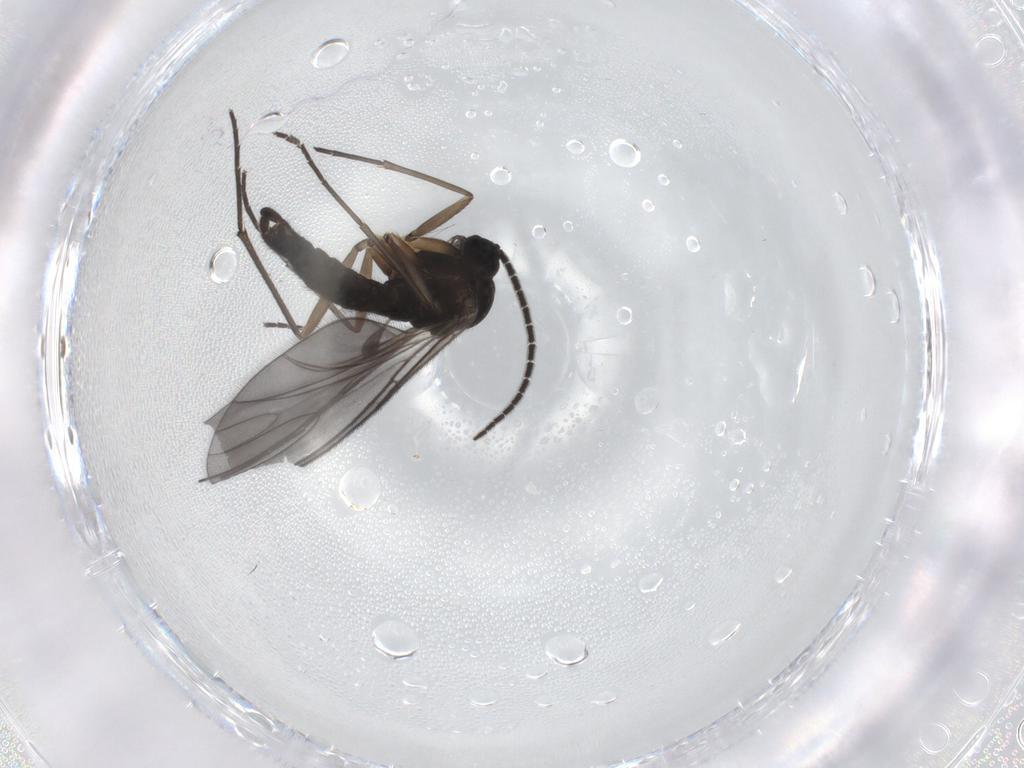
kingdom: Animalia
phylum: Arthropoda
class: Insecta
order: Diptera
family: Sciaridae
